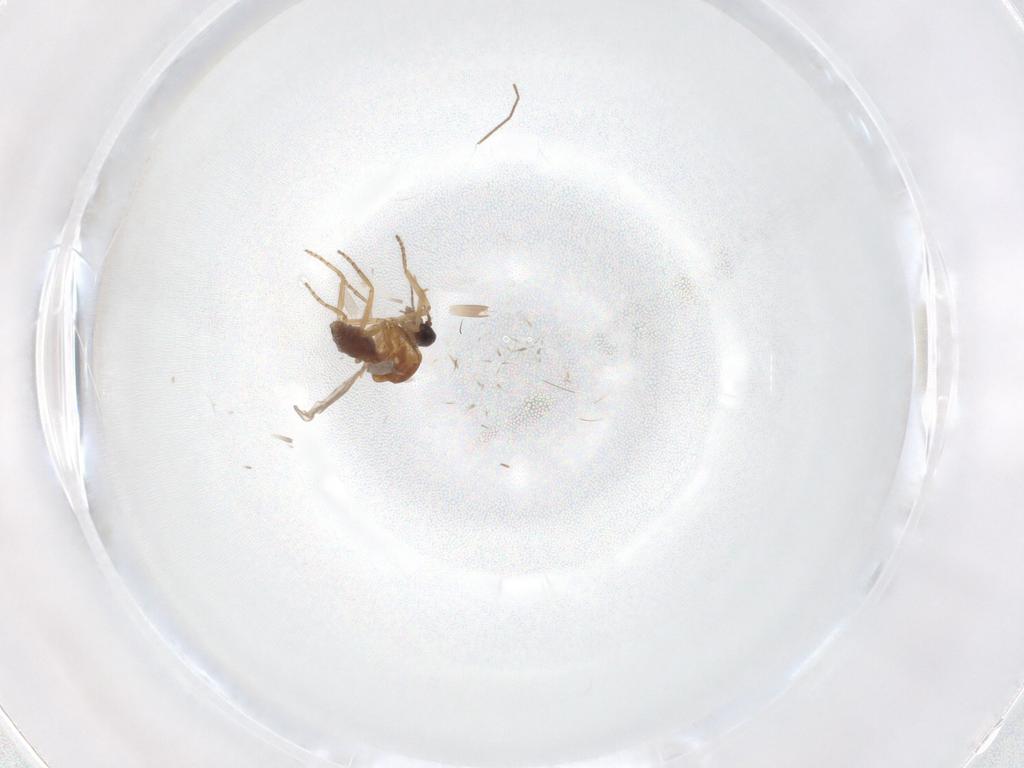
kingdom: Animalia
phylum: Arthropoda
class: Insecta
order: Diptera
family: Chironomidae
